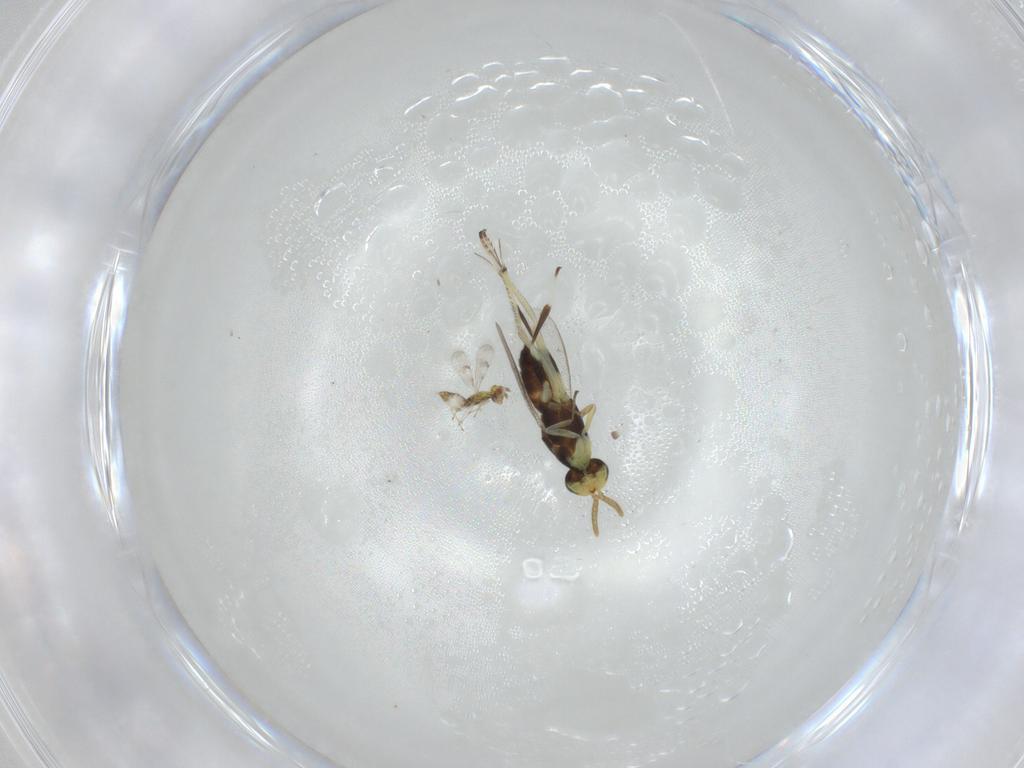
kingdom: Animalia
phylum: Arthropoda
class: Insecta
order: Hymenoptera
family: Eupelmidae
